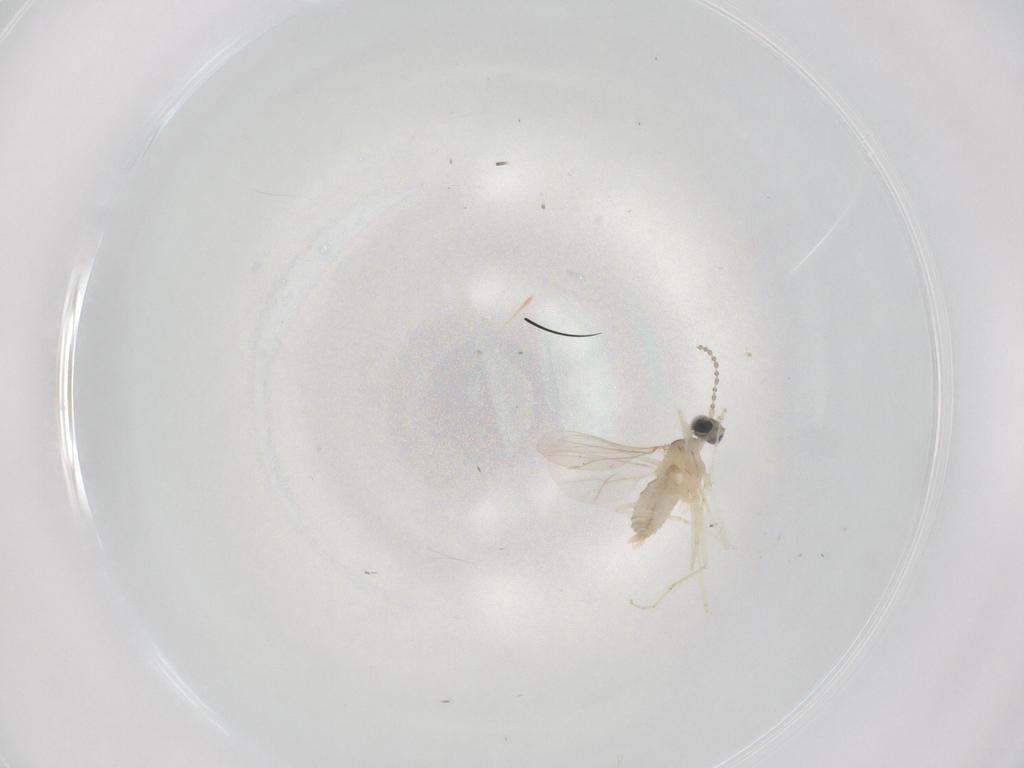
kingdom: Animalia
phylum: Arthropoda
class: Insecta
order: Diptera
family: Cecidomyiidae
